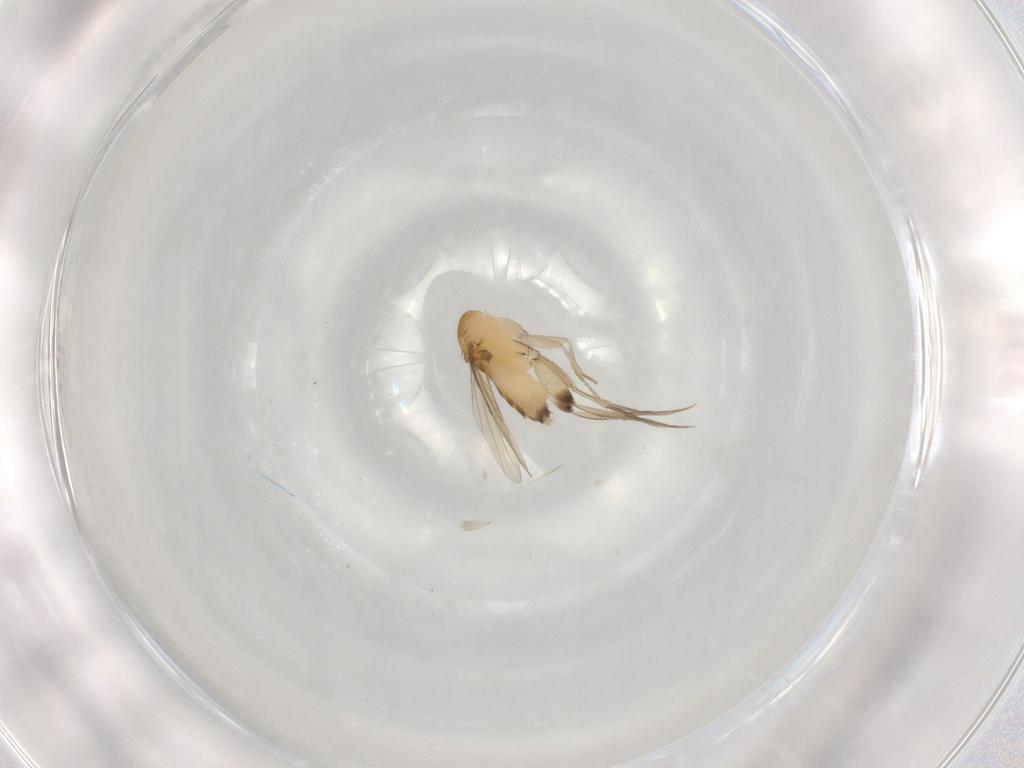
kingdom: Animalia
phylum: Arthropoda
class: Insecta
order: Diptera
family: Phoridae
